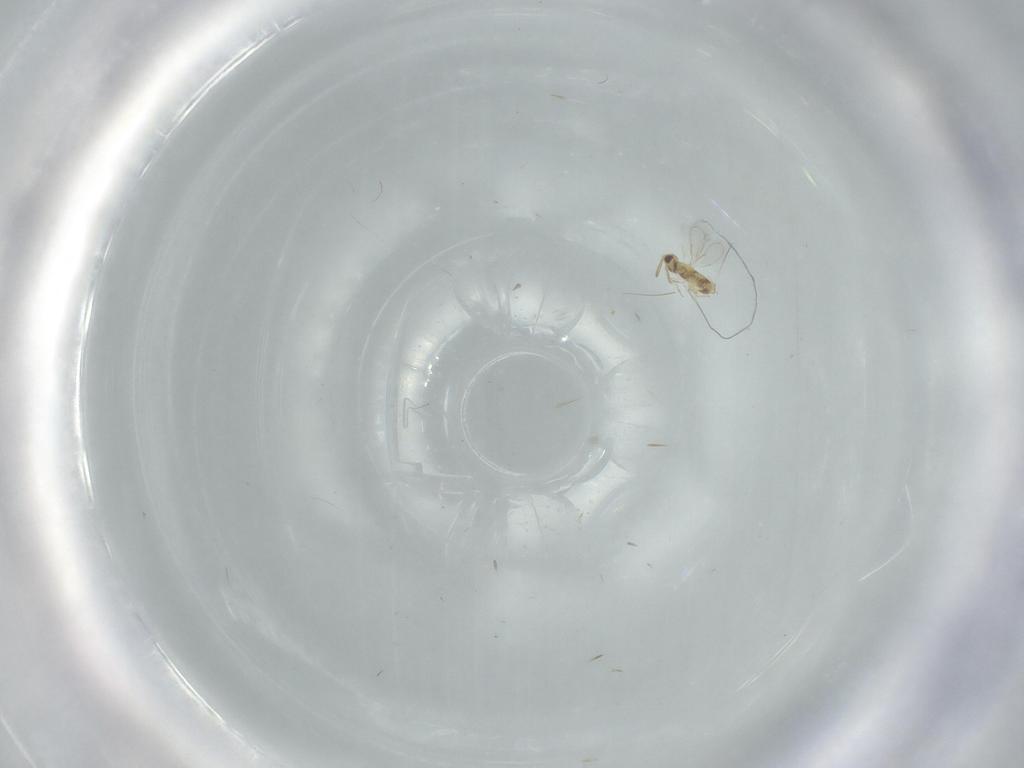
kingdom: Animalia
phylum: Arthropoda
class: Insecta
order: Hymenoptera
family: Aphelinidae
